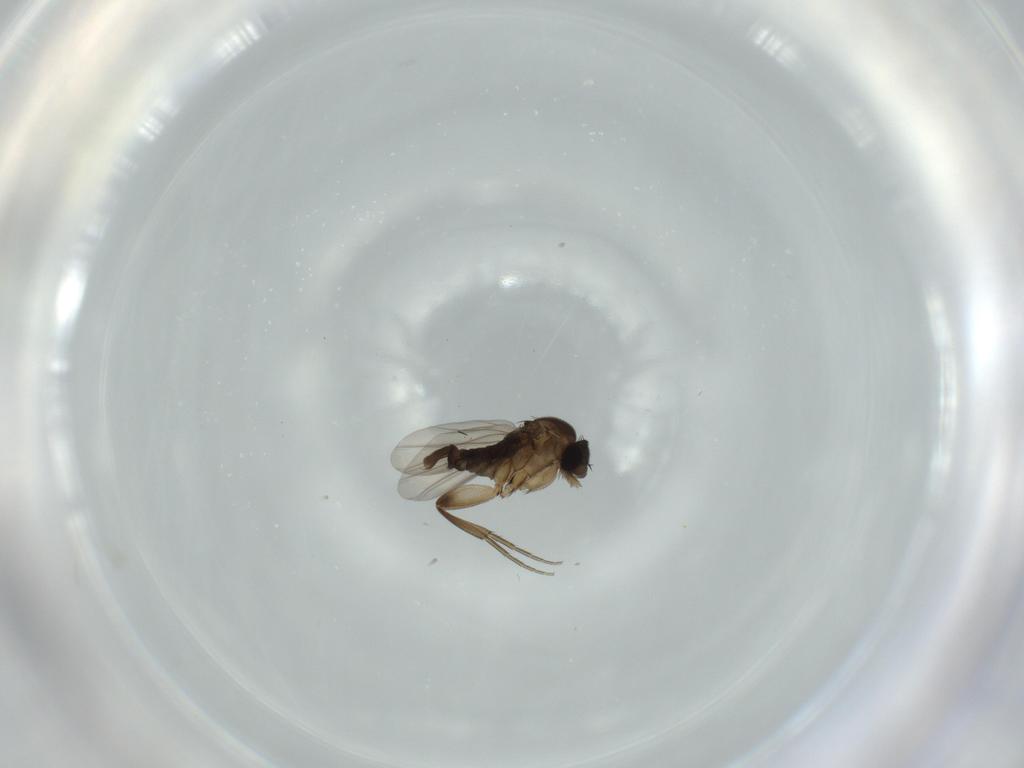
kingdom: Animalia
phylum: Arthropoda
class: Insecta
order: Diptera
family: Phoridae
